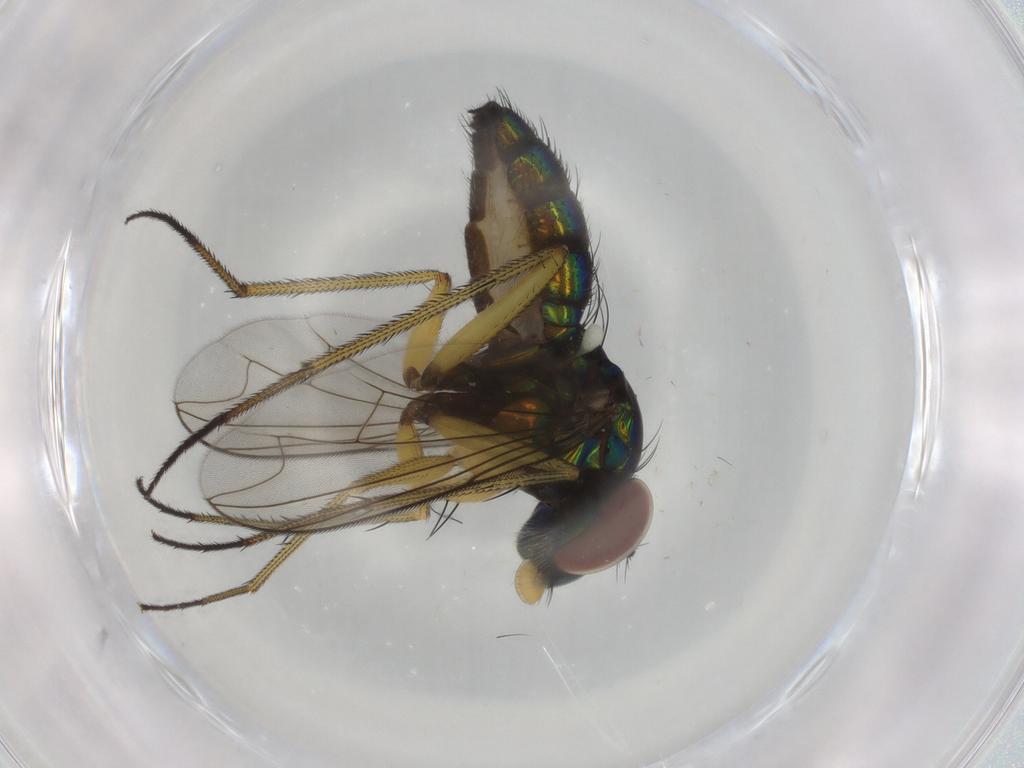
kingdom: Animalia
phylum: Arthropoda
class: Insecta
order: Diptera
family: Dolichopodidae
